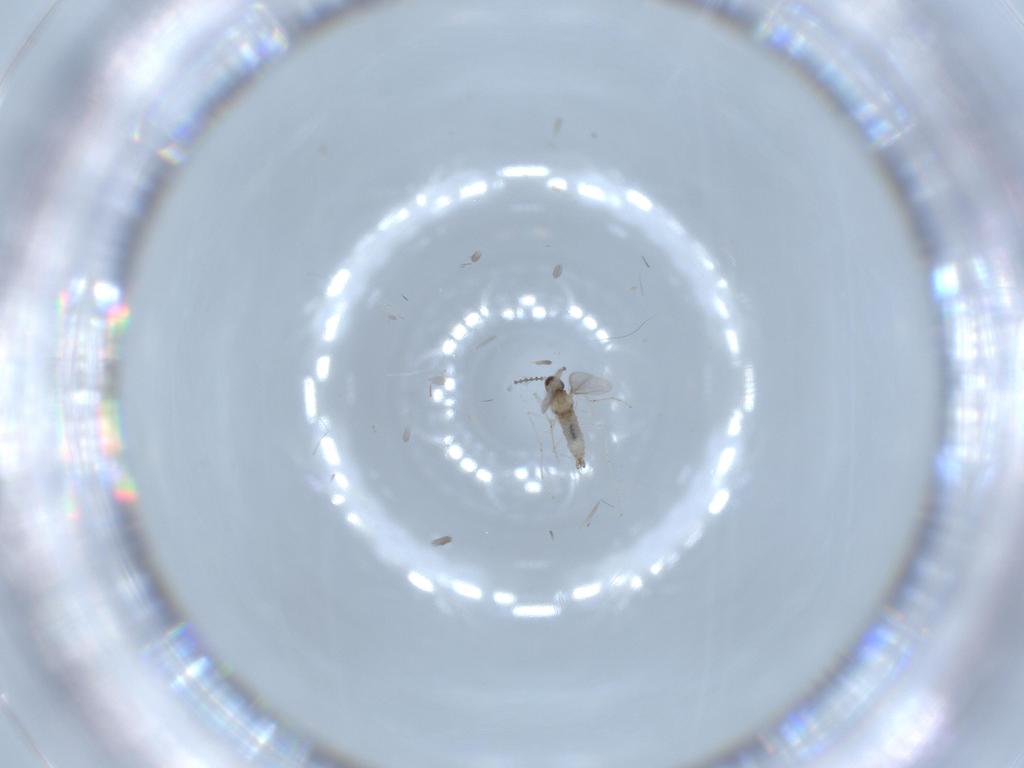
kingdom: Animalia
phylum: Arthropoda
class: Insecta
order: Diptera
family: Cecidomyiidae
